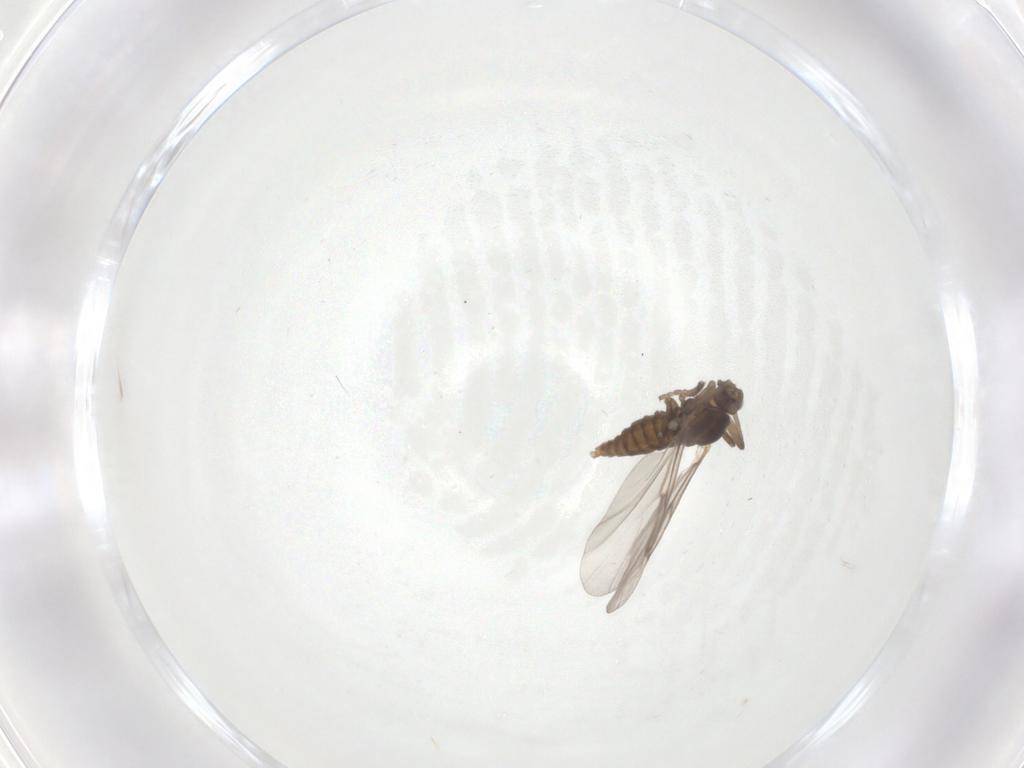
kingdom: Animalia
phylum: Arthropoda
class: Insecta
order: Diptera
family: Cecidomyiidae
